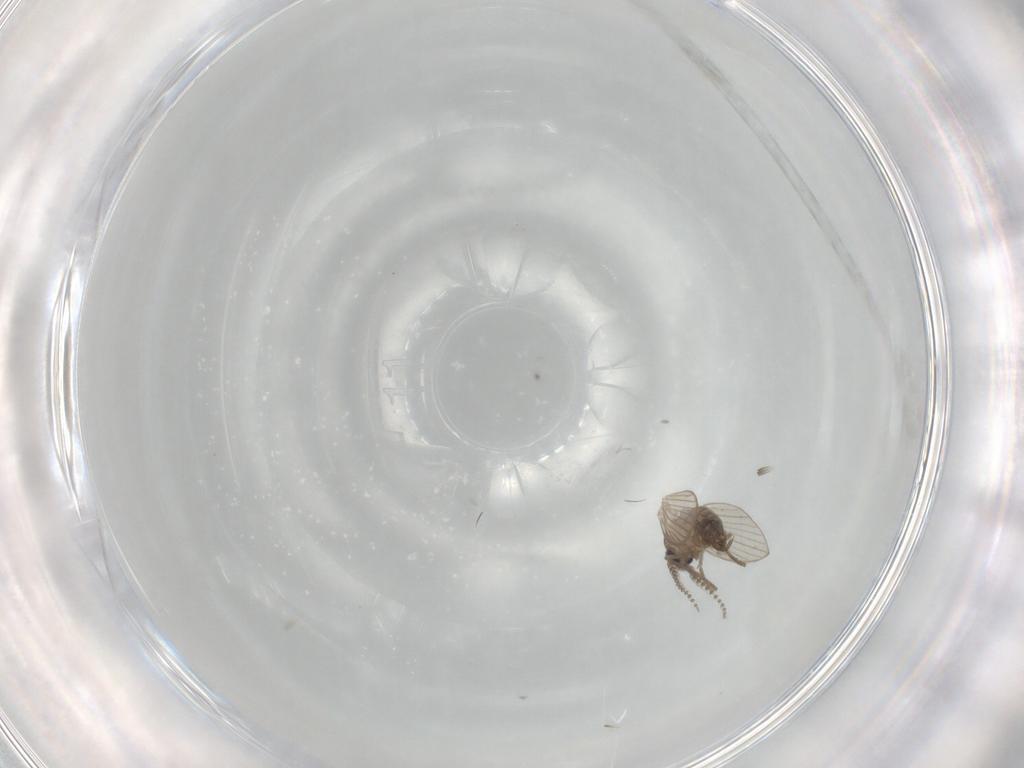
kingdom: Animalia
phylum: Arthropoda
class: Insecta
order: Diptera
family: Psychodidae
